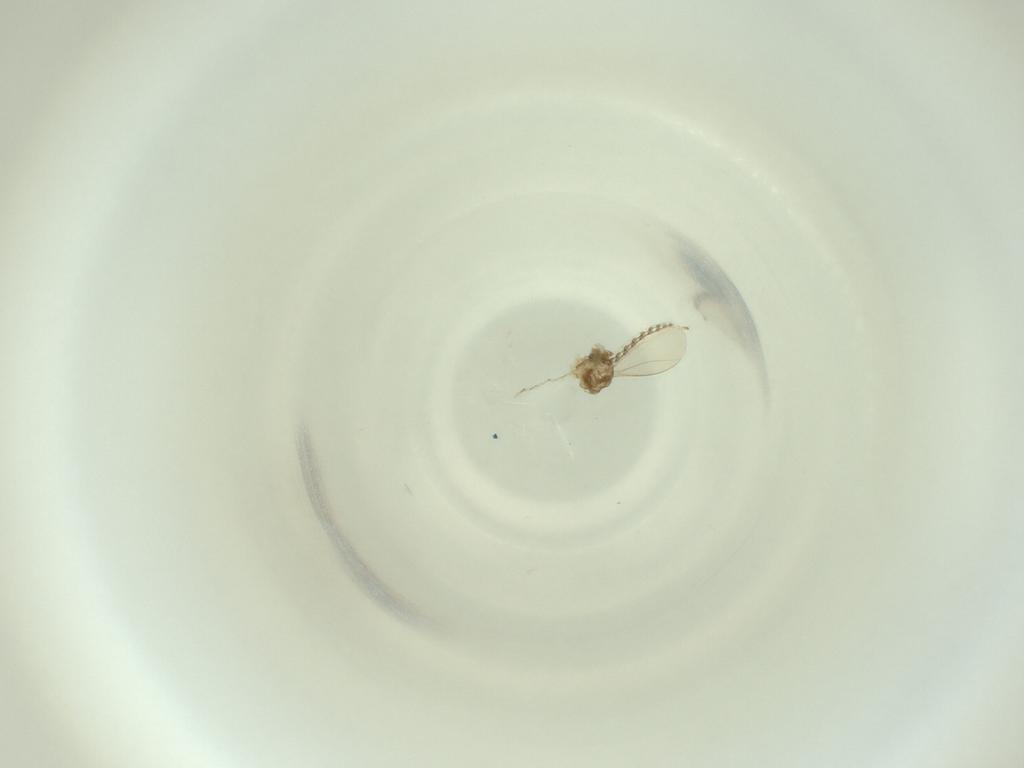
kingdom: Animalia
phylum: Arthropoda
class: Insecta
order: Diptera
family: Cecidomyiidae
